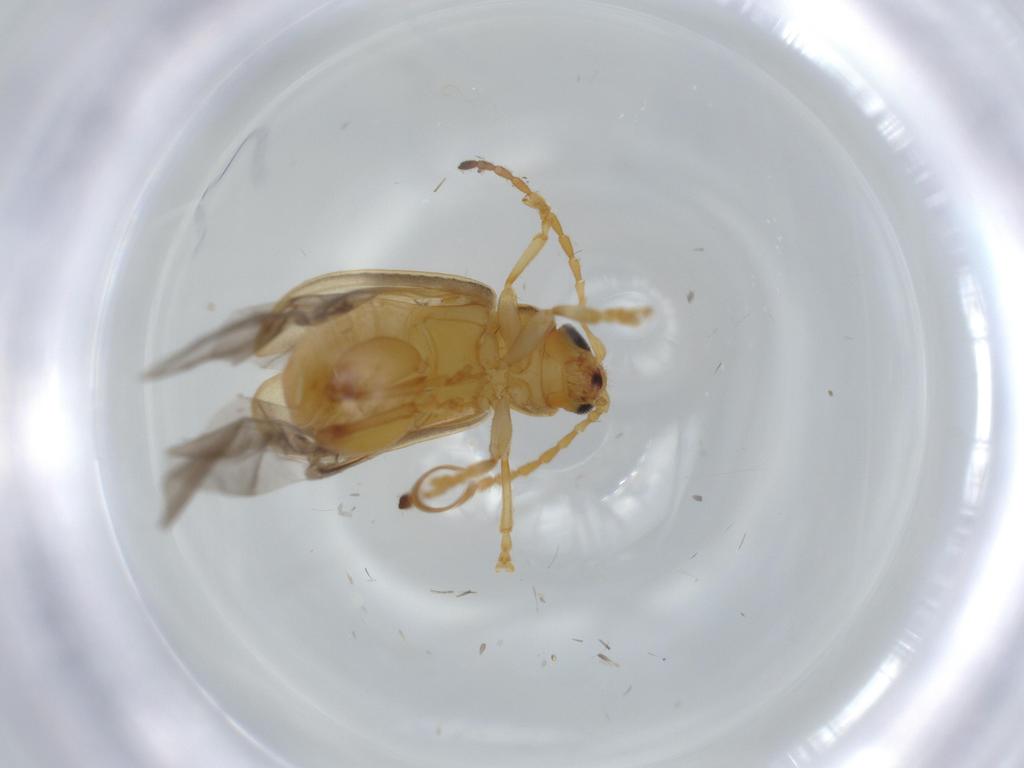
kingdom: Animalia
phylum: Arthropoda
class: Insecta
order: Coleoptera
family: Chrysomelidae
